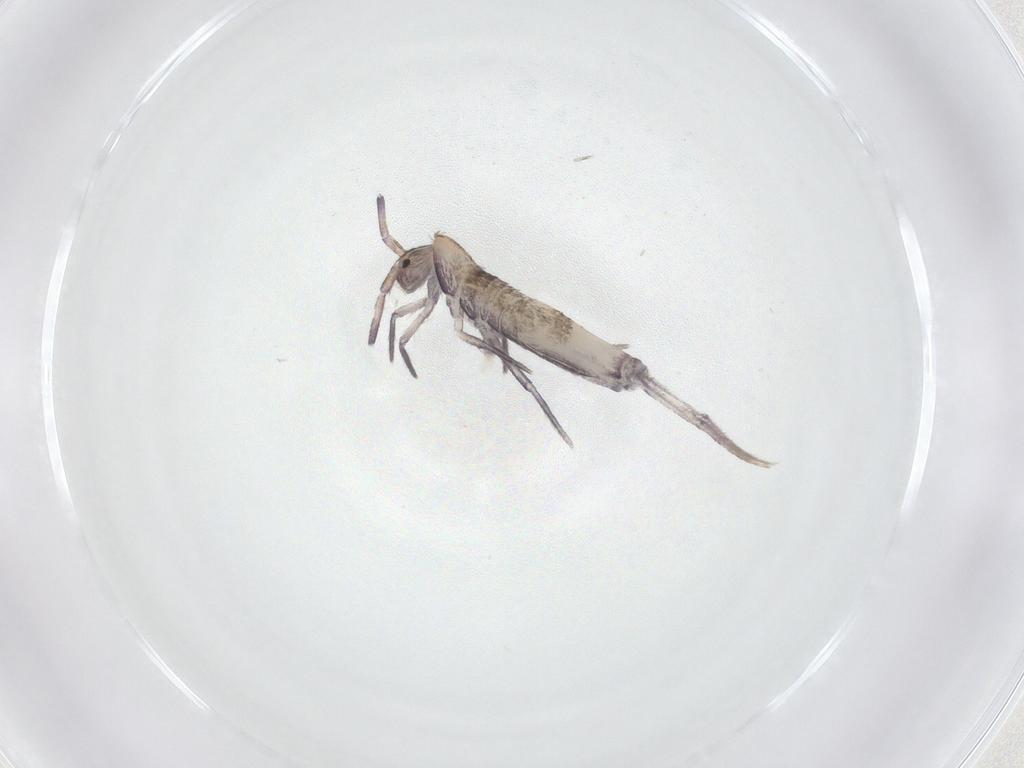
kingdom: Animalia
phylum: Arthropoda
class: Collembola
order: Entomobryomorpha
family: Entomobryidae
